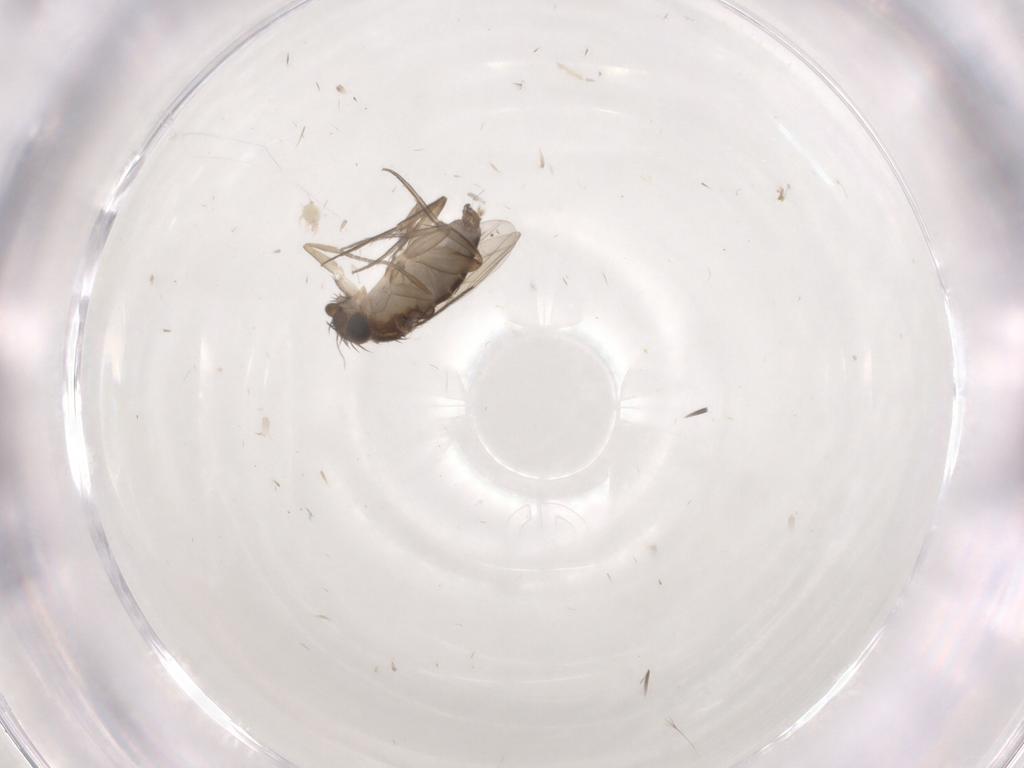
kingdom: Animalia
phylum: Arthropoda
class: Insecta
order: Diptera
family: Phoridae
